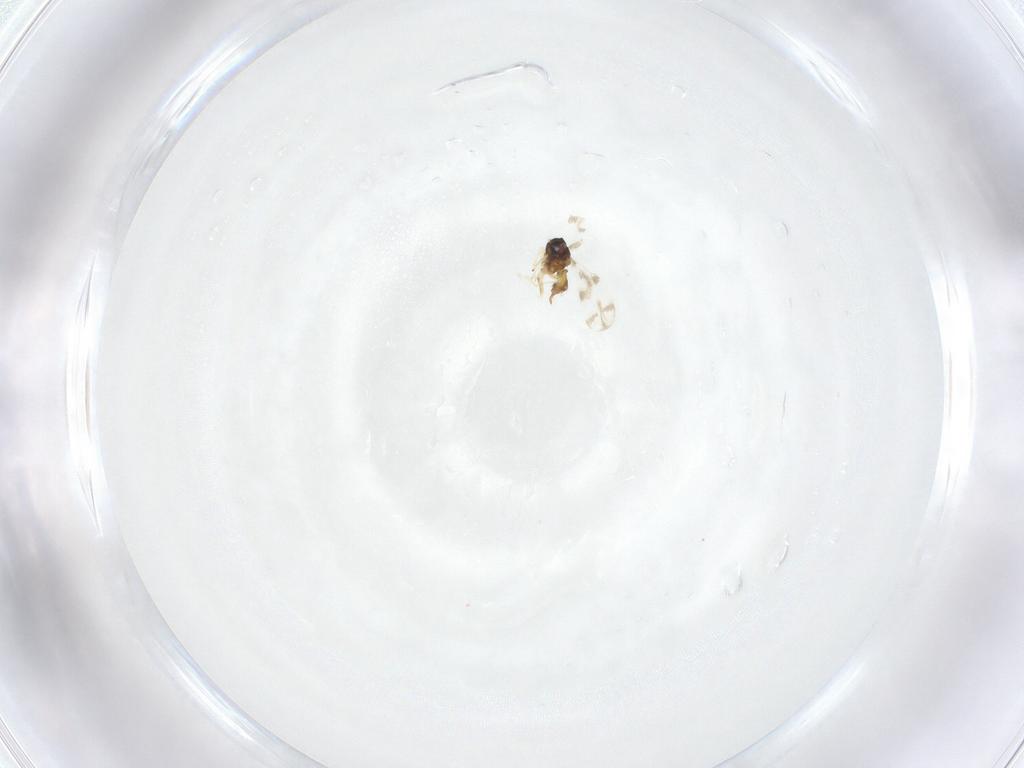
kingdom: Animalia
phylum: Arthropoda
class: Insecta
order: Hemiptera
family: Aleyrodidae
